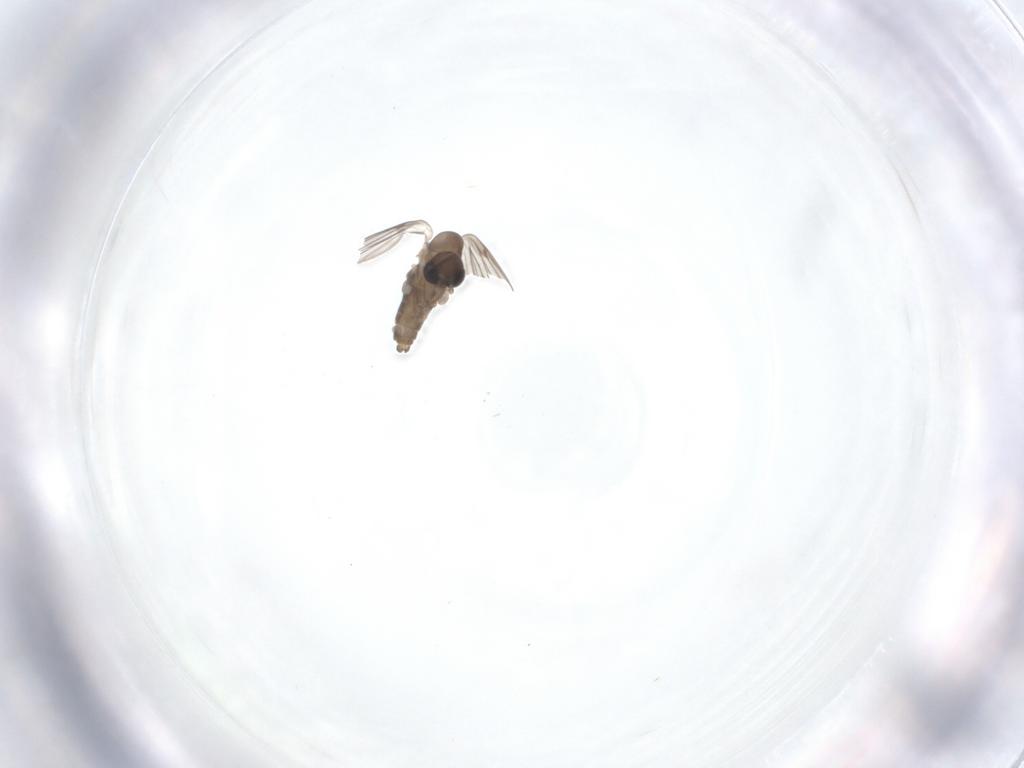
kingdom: Animalia
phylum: Arthropoda
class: Insecta
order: Diptera
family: Psychodidae
